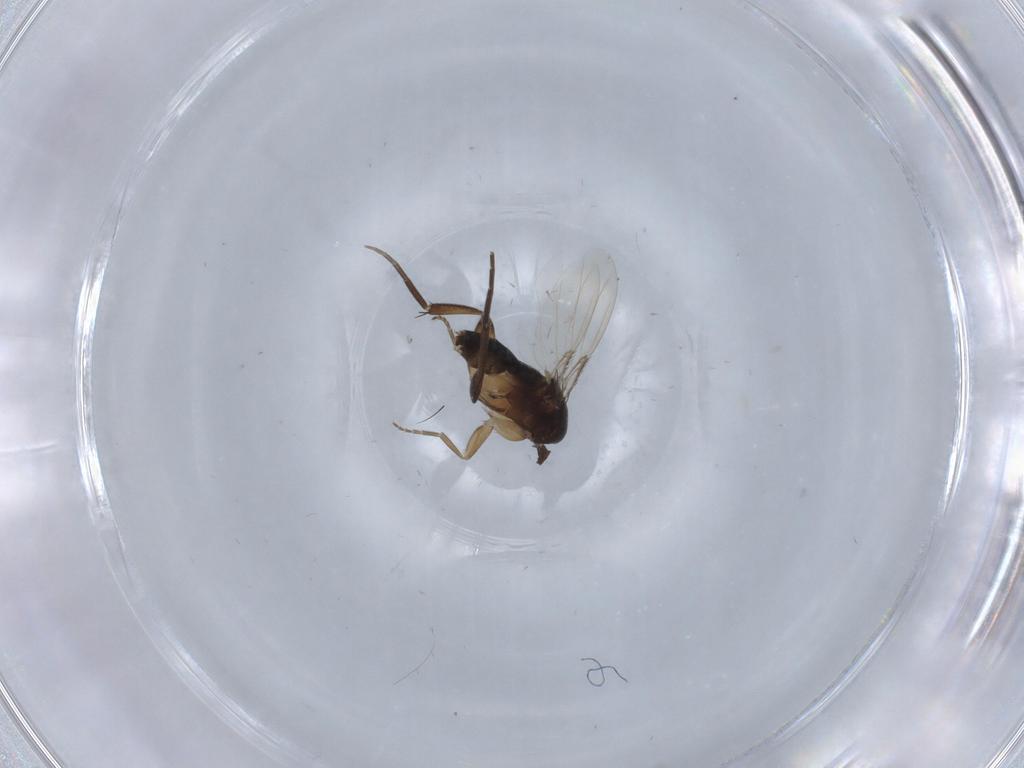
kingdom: Animalia
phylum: Arthropoda
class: Insecta
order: Diptera
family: Phoridae
